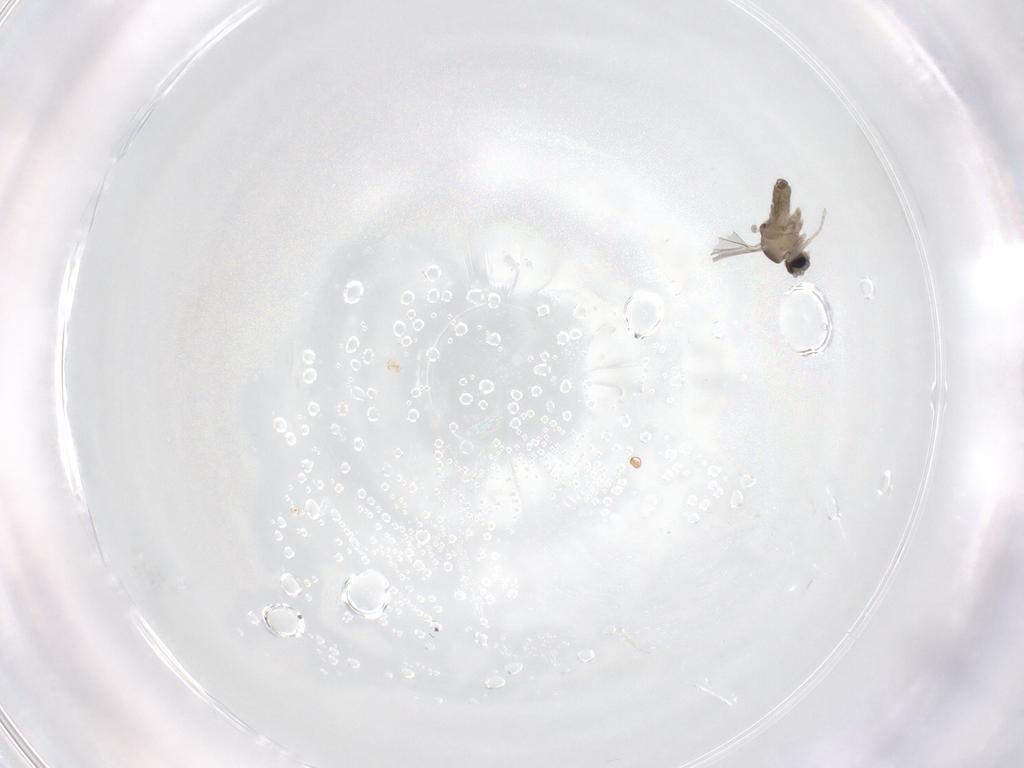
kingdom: Animalia
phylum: Arthropoda
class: Insecta
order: Diptera
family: Cecidomyiidae
